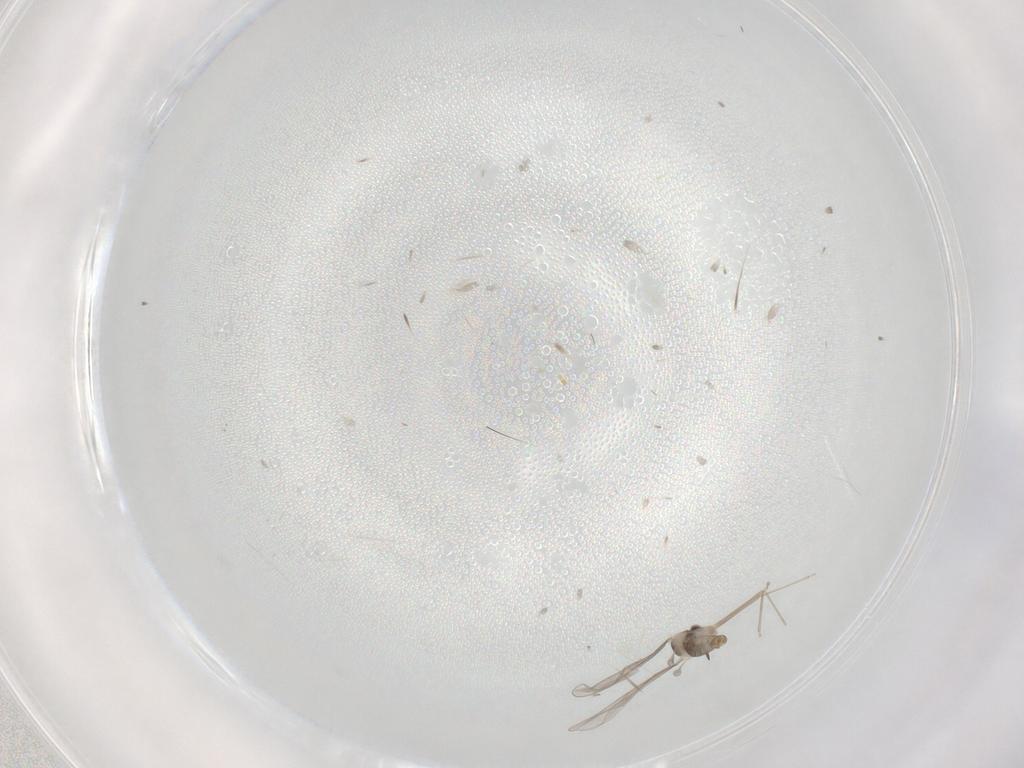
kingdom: Animalia
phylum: Arthropoda
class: Insecta
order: Diptera
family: Cecidomyiidae
